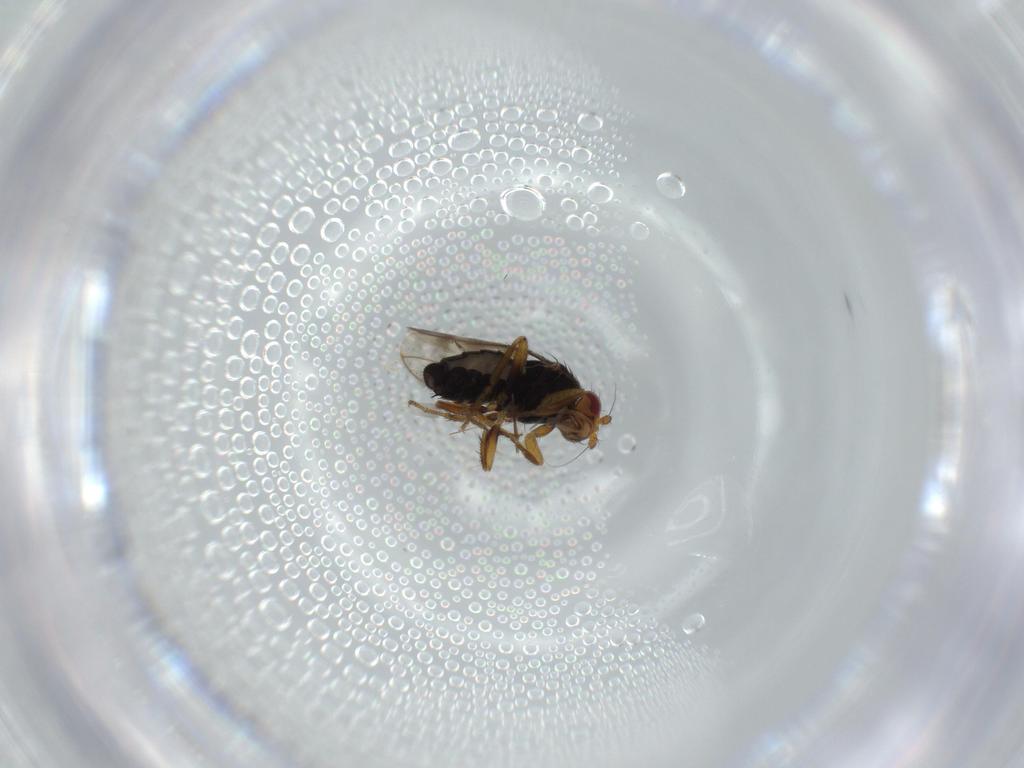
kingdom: Animalia
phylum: Arthropoda
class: Insecta
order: Diptera
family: Sphaeroceridae
